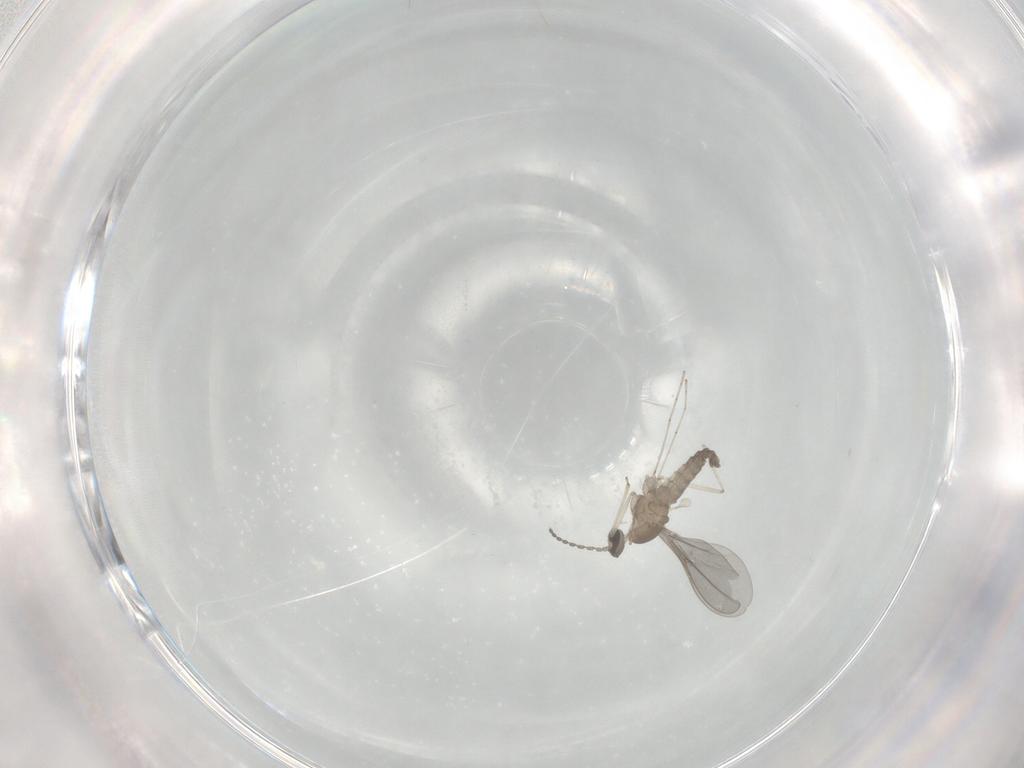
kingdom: Animalia
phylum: Arthropoda
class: Insecta
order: Diptera
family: Cecidomyiidae
